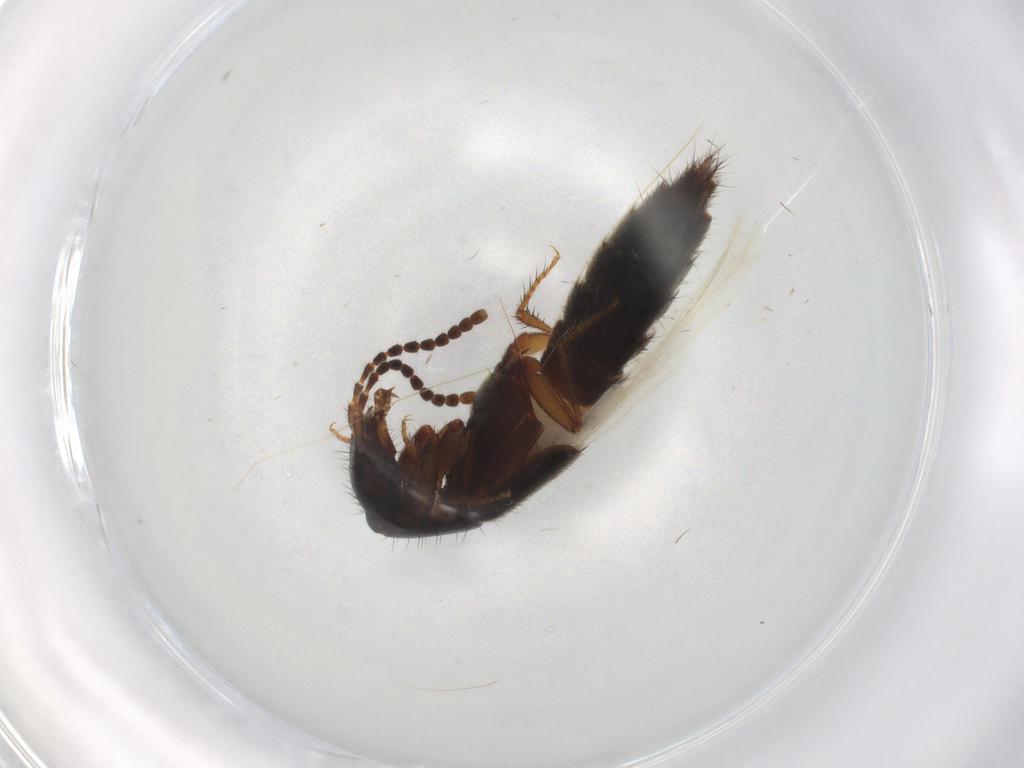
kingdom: Animalia
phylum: Arthropoda
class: Insecta
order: Coleoptera
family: Staphylinidae
